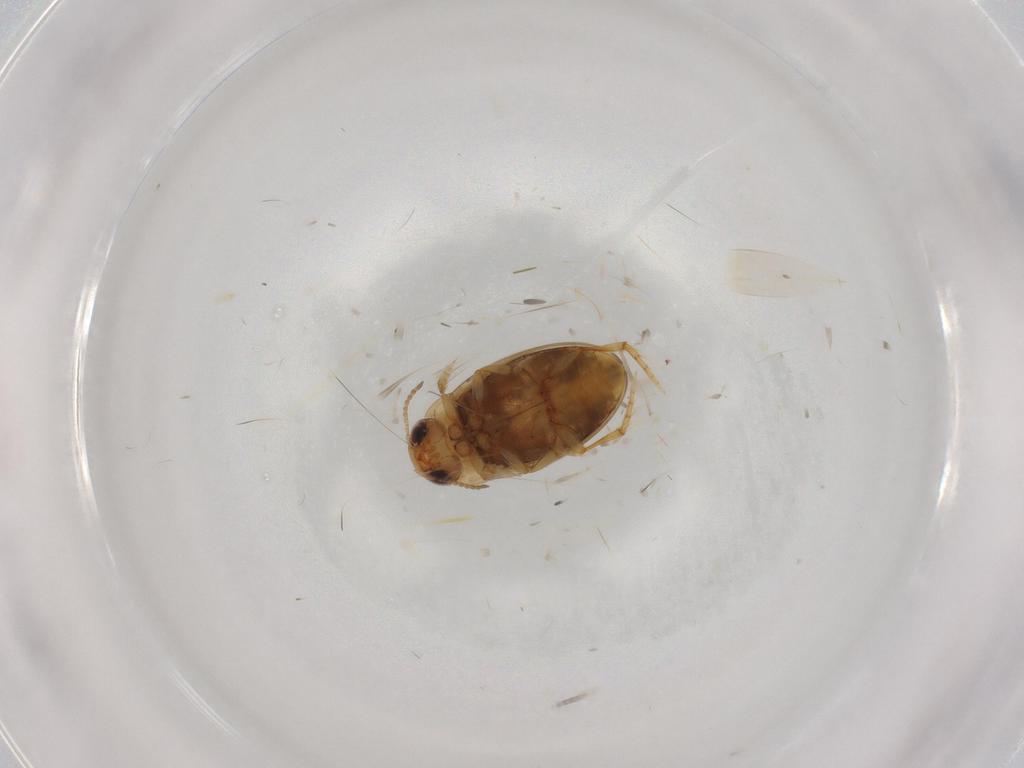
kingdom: Animalia
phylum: Arthropoda
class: Insecta
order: Coleoptera
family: Dytiscidae
